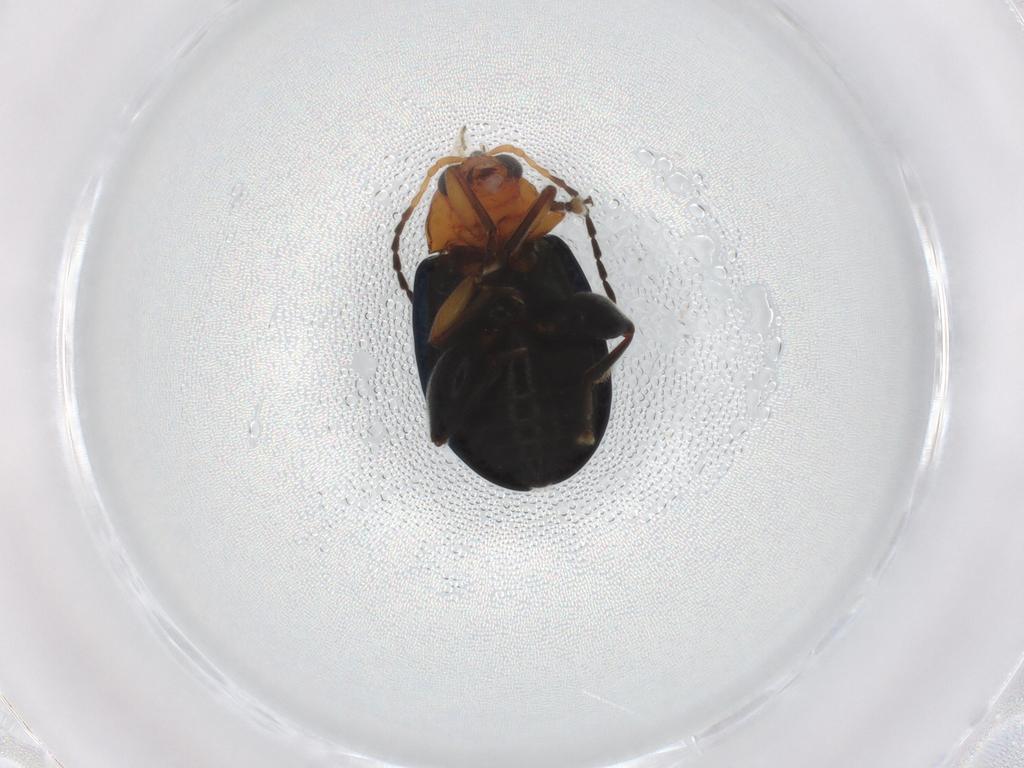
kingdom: Animalia
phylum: Arthropoda
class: Insecta
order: Coleoptera
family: Chrysomelidae
